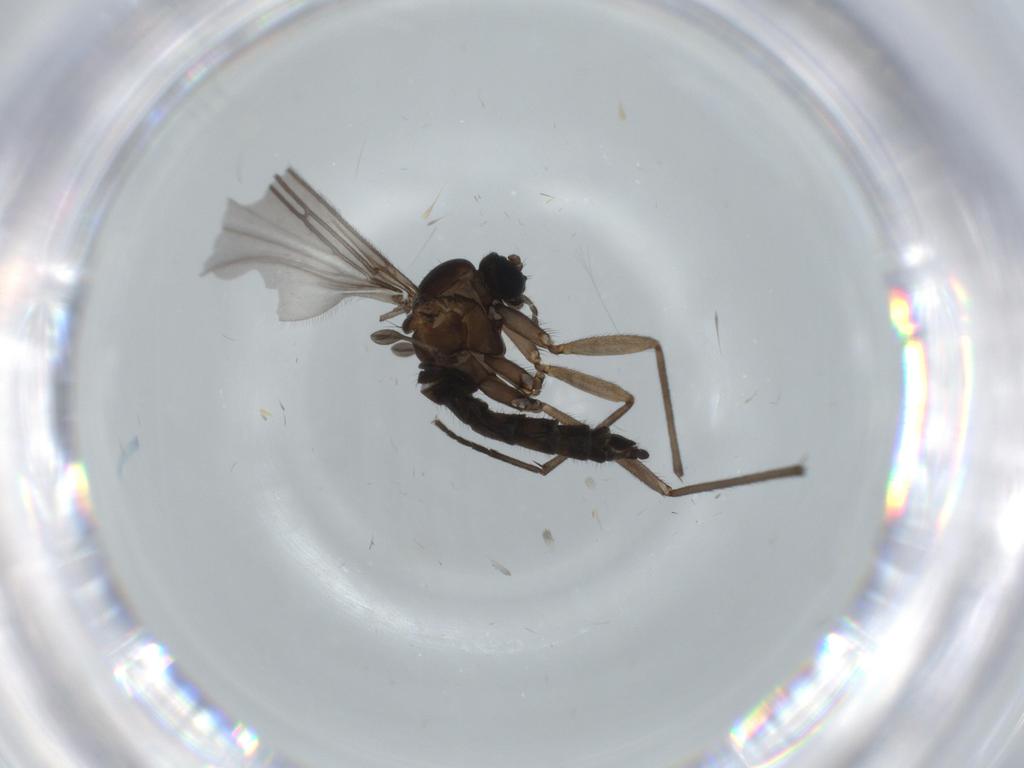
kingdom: Animalia
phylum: Arthropoda
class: Insecta
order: Diptera
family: Sciaridae
